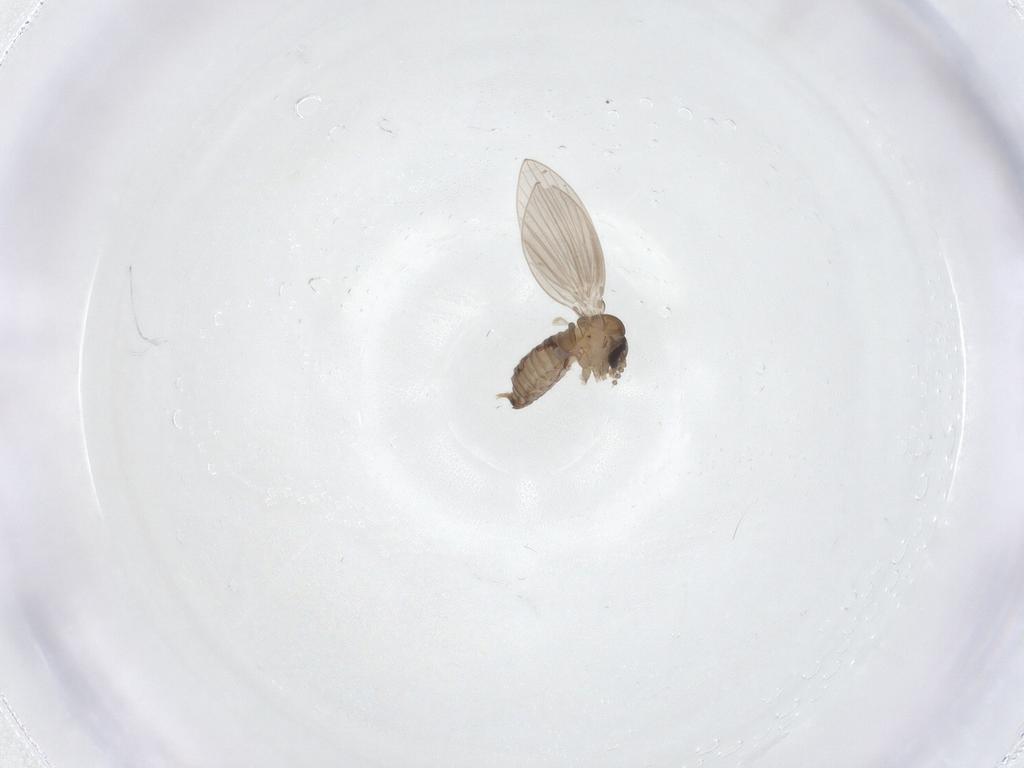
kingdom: Animalia
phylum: Arthropoda
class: Insecta
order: Diptera
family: Psychodidae
